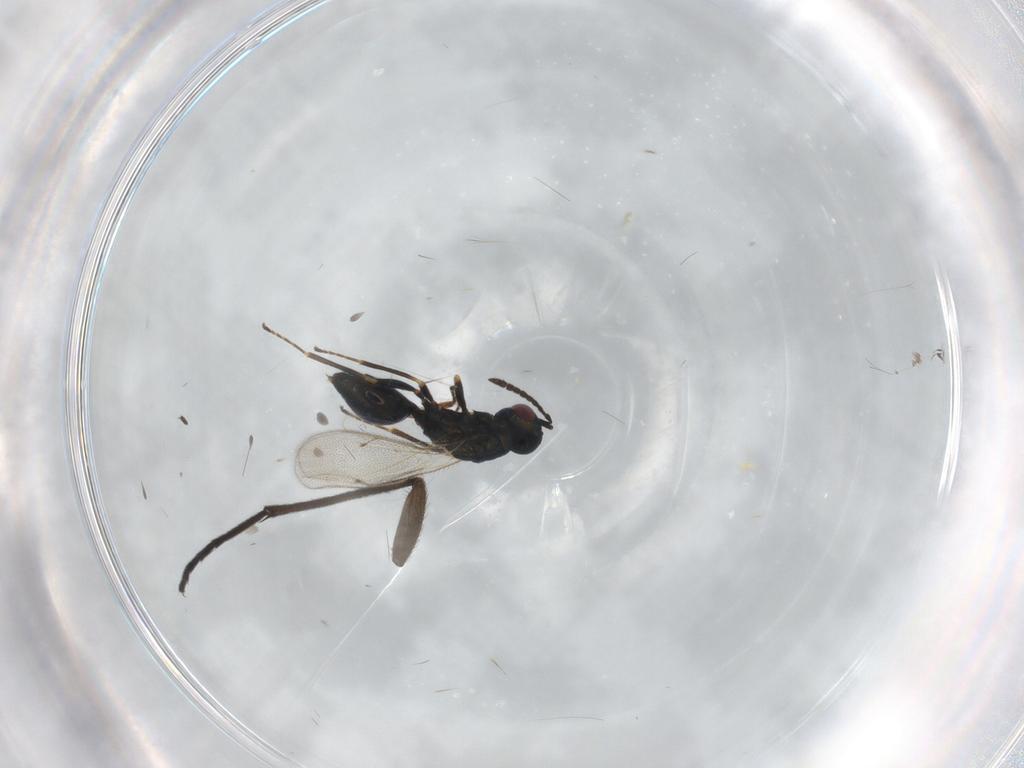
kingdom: Animalia
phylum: Arthropoda
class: Insecta
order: Hymenoptera
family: Pteromalidae
